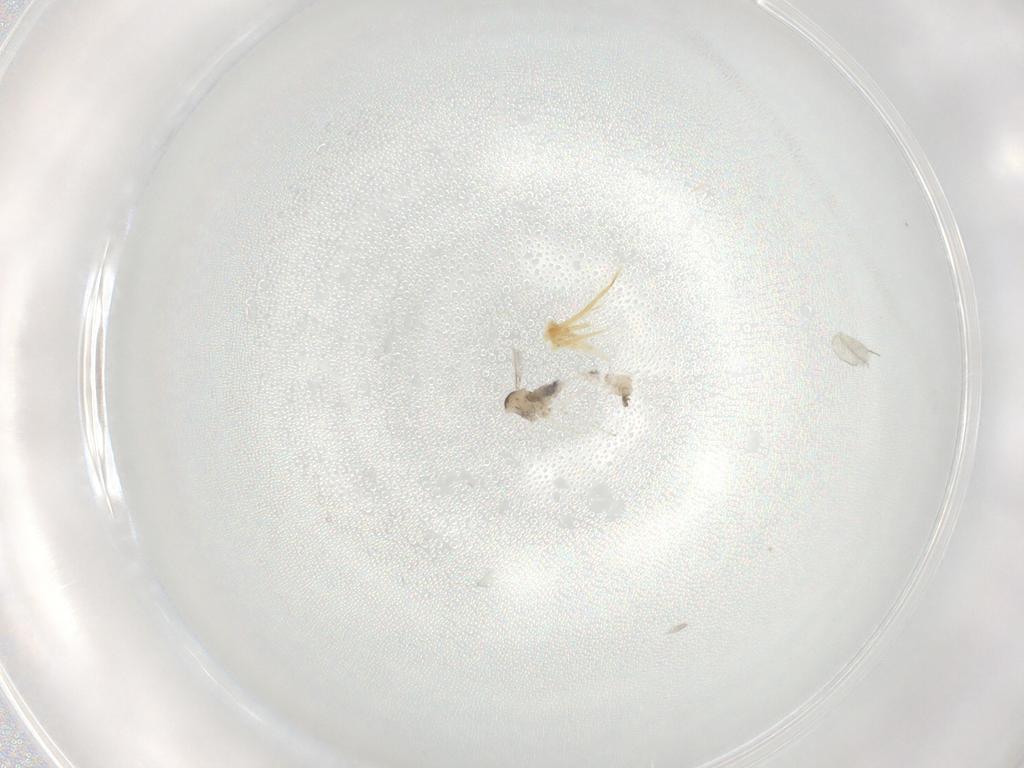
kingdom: Animalia
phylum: Arthropoda
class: Insecta
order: Diptera
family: Cecidomyiidae
